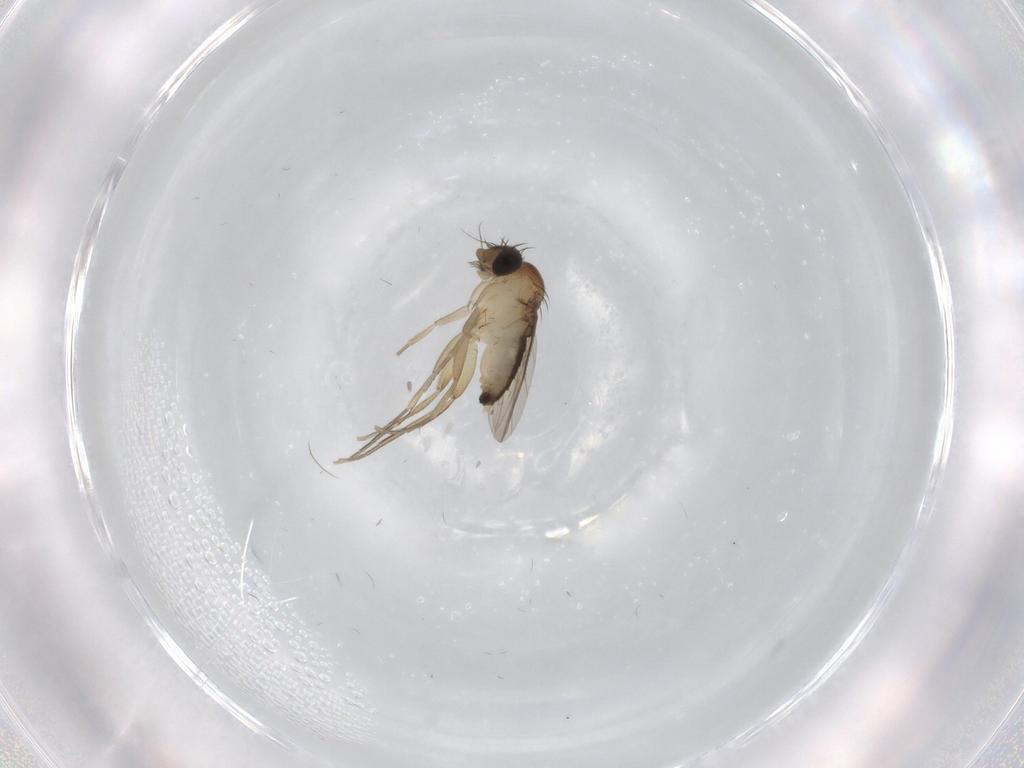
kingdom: Animalia
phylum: Arthropoda
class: Insecta
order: Diptera
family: Phoridae
